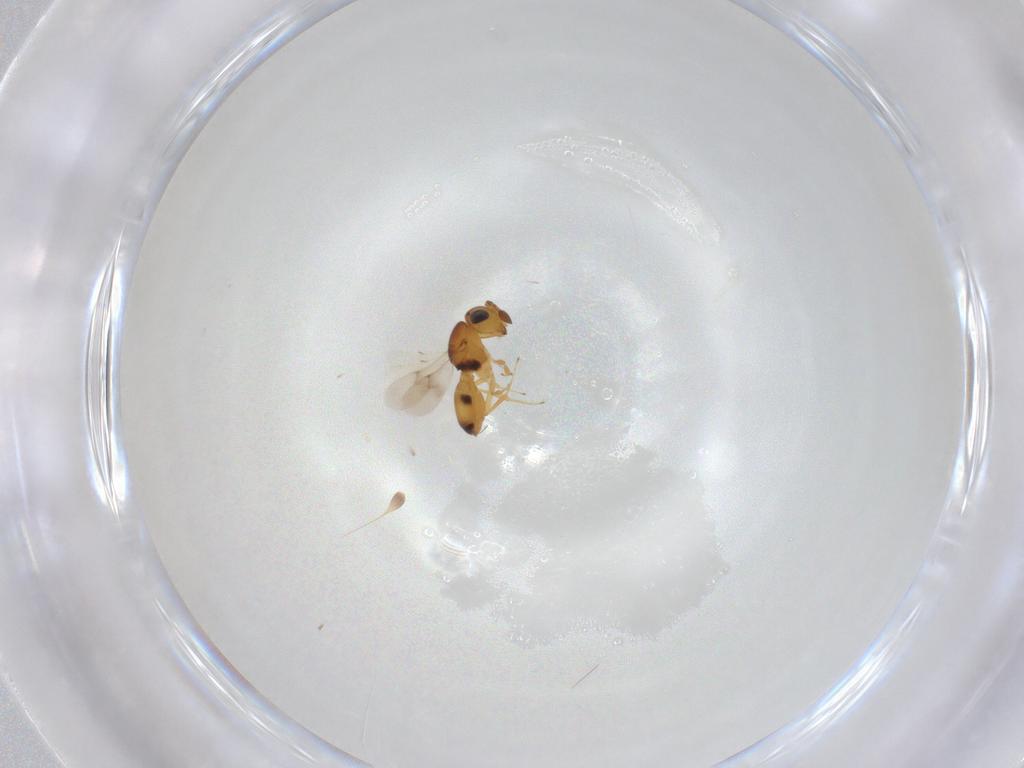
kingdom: Animalia
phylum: Arthropoda
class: Insecta
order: Hymenoptera
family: Scelionidae
